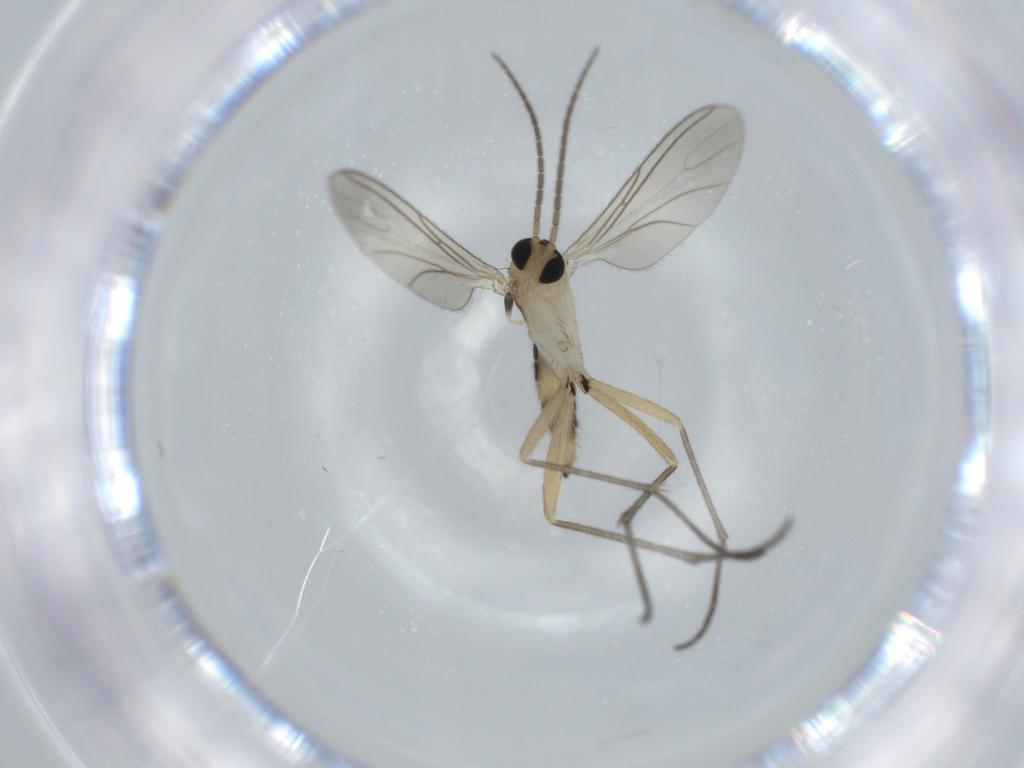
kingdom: Animalia
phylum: Arthropoda
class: Insecta
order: Diptera
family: Sciaridae
